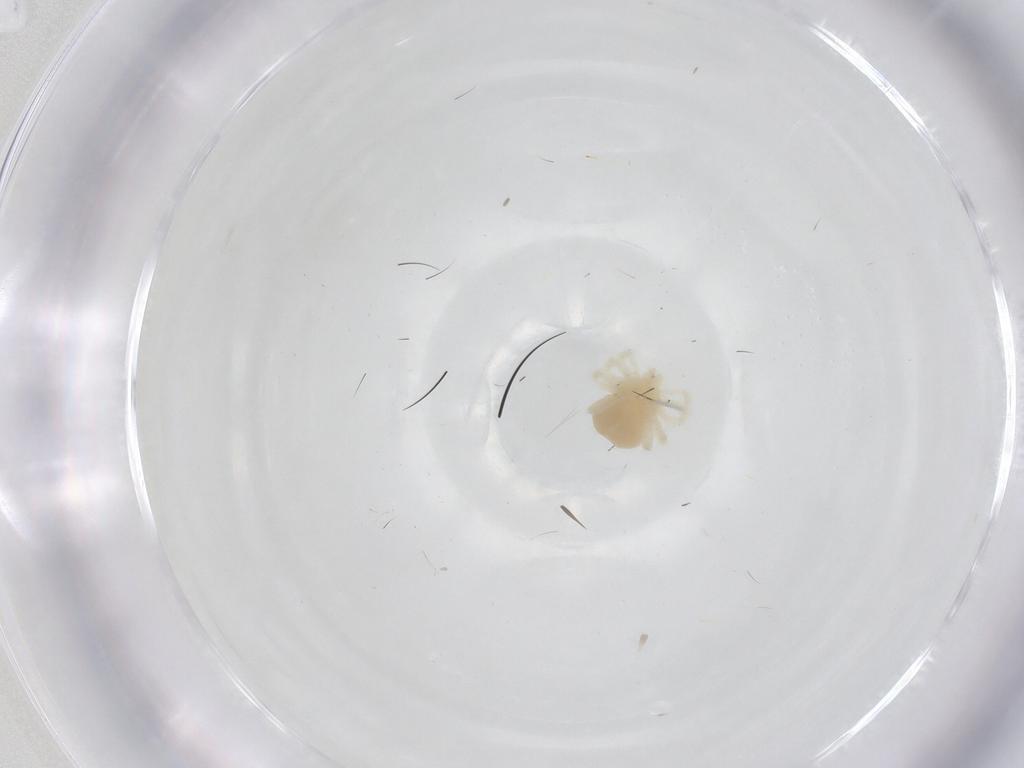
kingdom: Animalia
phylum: Arthropoda
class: Arachnida
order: Trombidiformes
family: Anystidae
